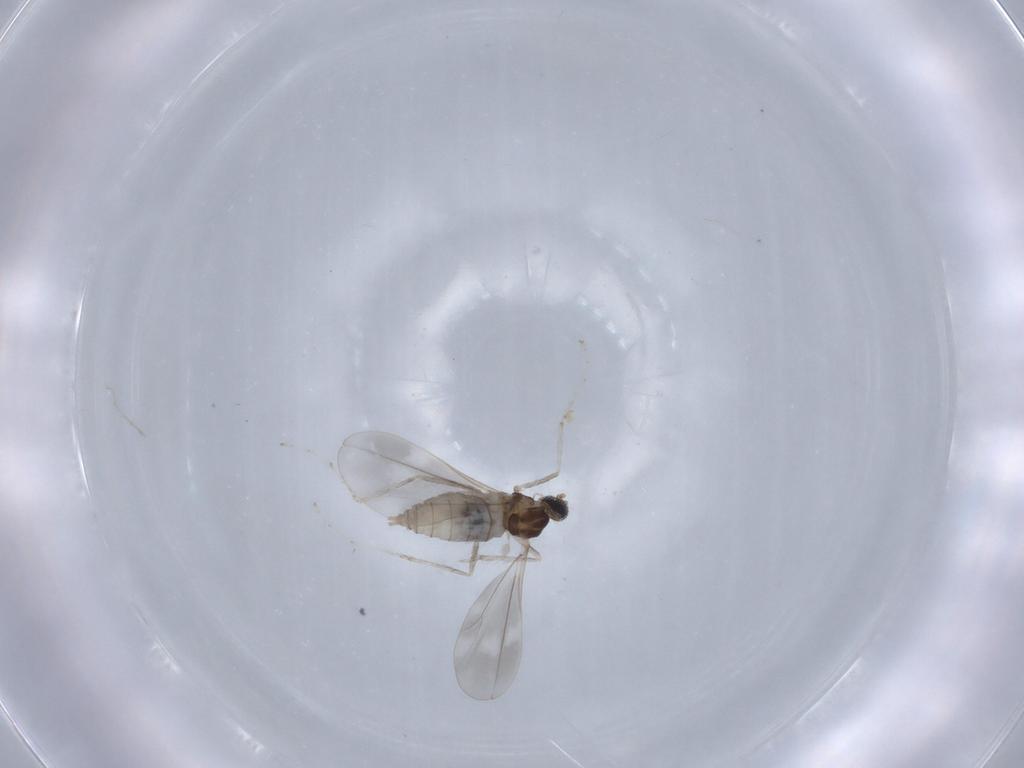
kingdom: Animalia
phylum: Arthropoda
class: Insecta
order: Diptera
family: Cecidomyiidae
